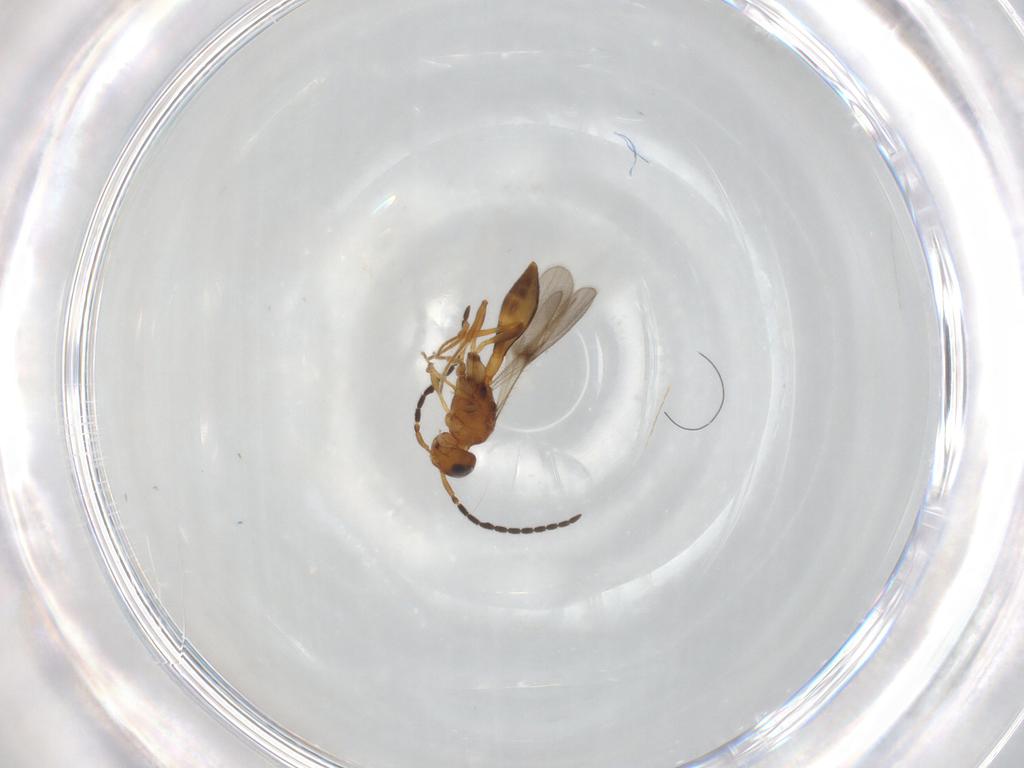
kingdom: Animalia
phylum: Arthropoda
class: Insecta
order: Hymenoptera
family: Scelionidae
